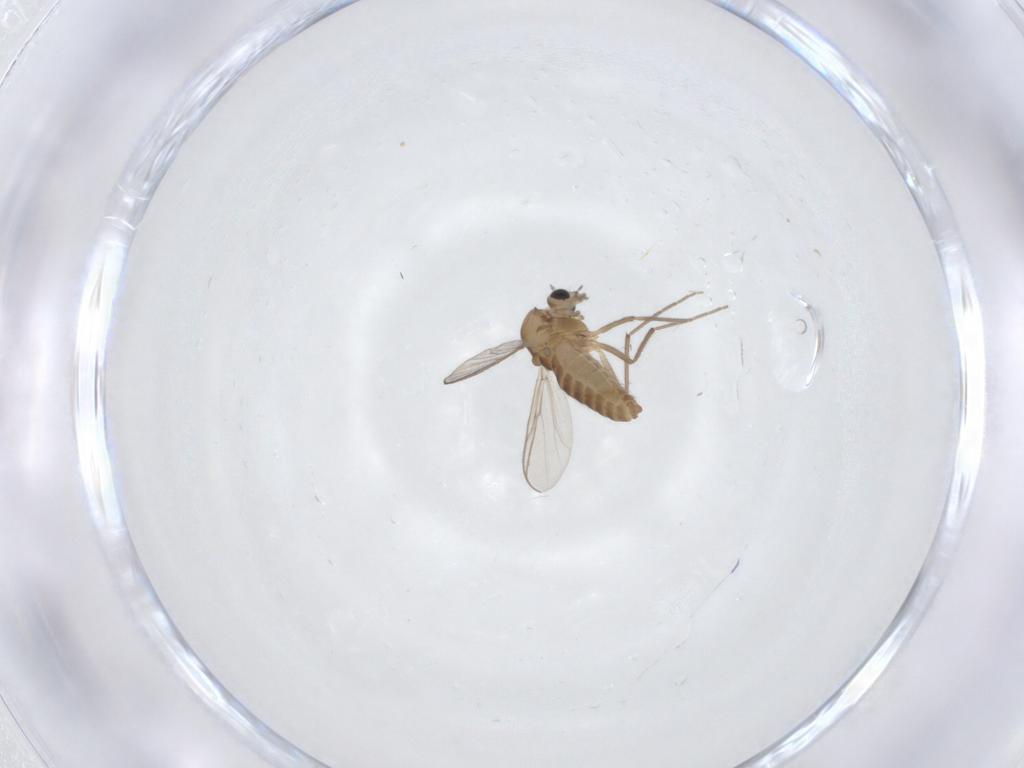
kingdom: Animalia
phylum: Arthropoda
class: Insecta
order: Diptera
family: Chironomidae
